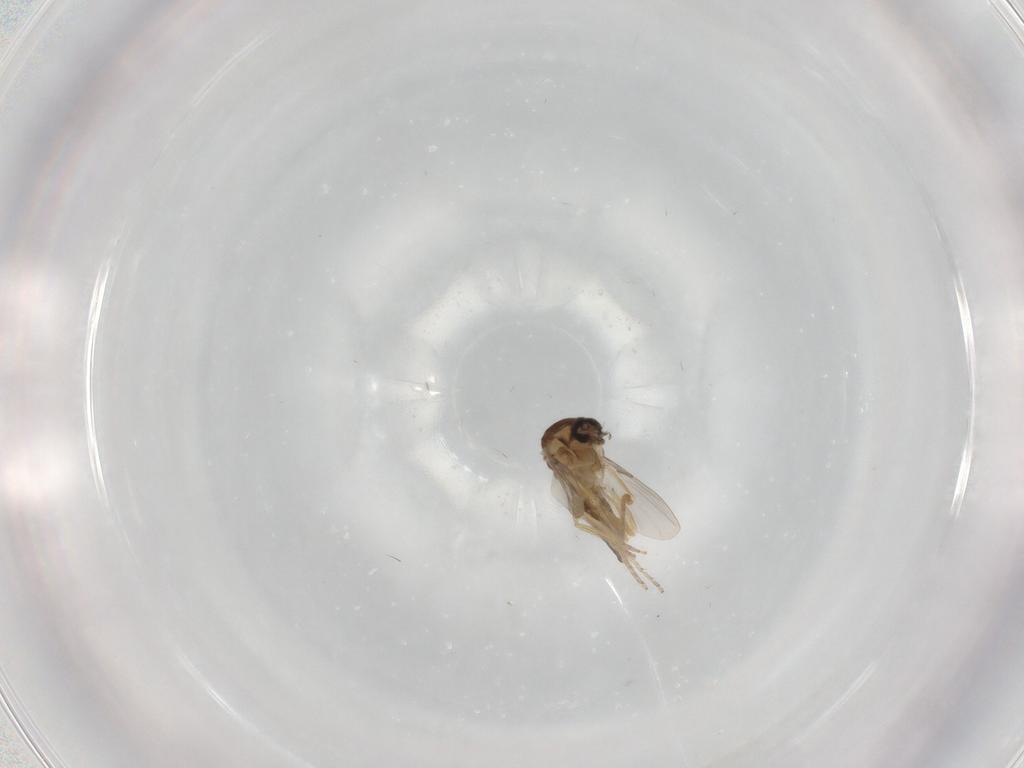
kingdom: Animalia
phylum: Arthropoda
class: Insecta
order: Diptera
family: Ceratopogonidae
